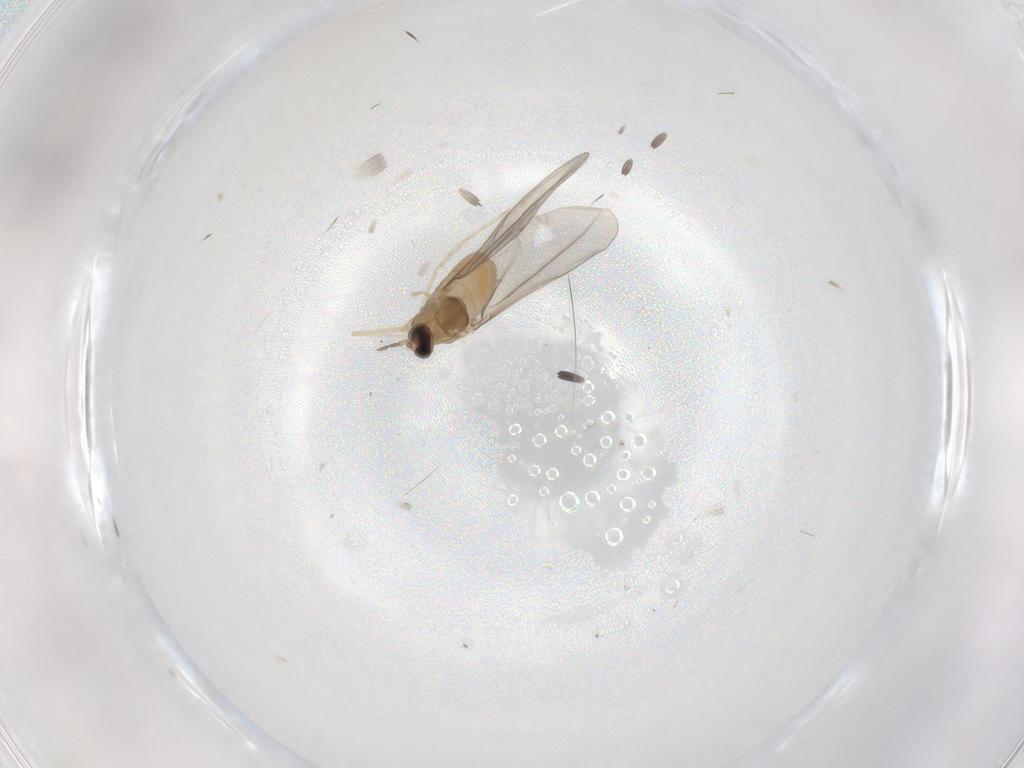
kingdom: Animalia
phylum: Arthropoda
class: Insecta
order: Diptera
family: Cecidomyiidae
